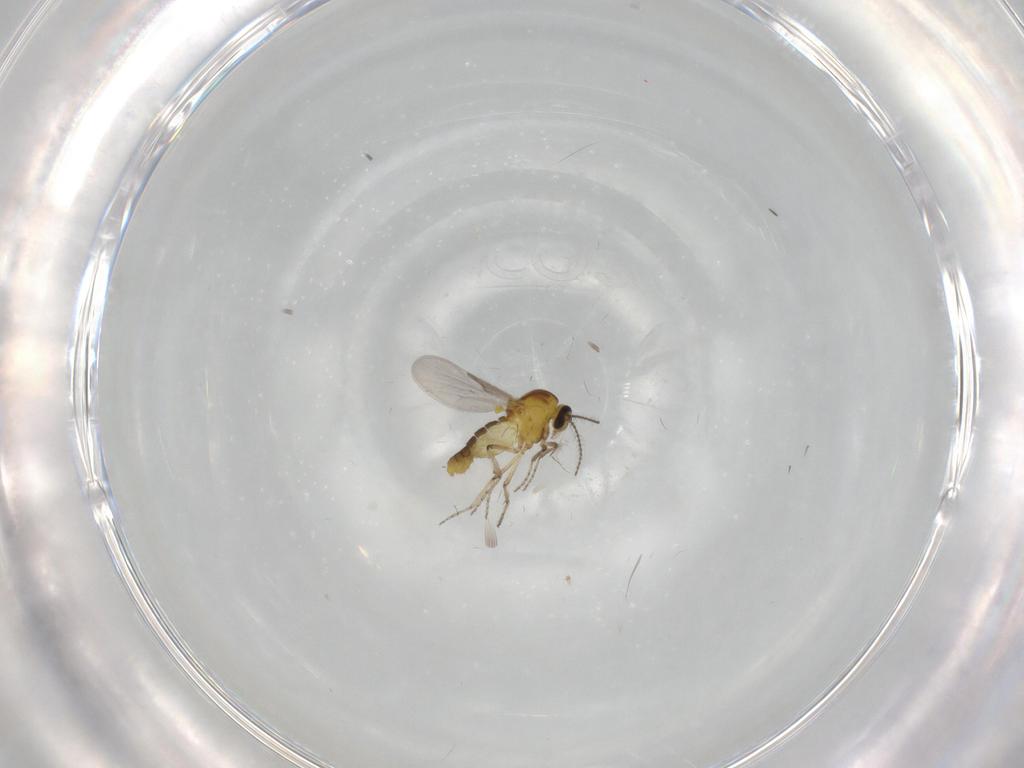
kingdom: Animalia
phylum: Arthropoda
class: Insecta
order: Diptera
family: Ceratopogonidae
